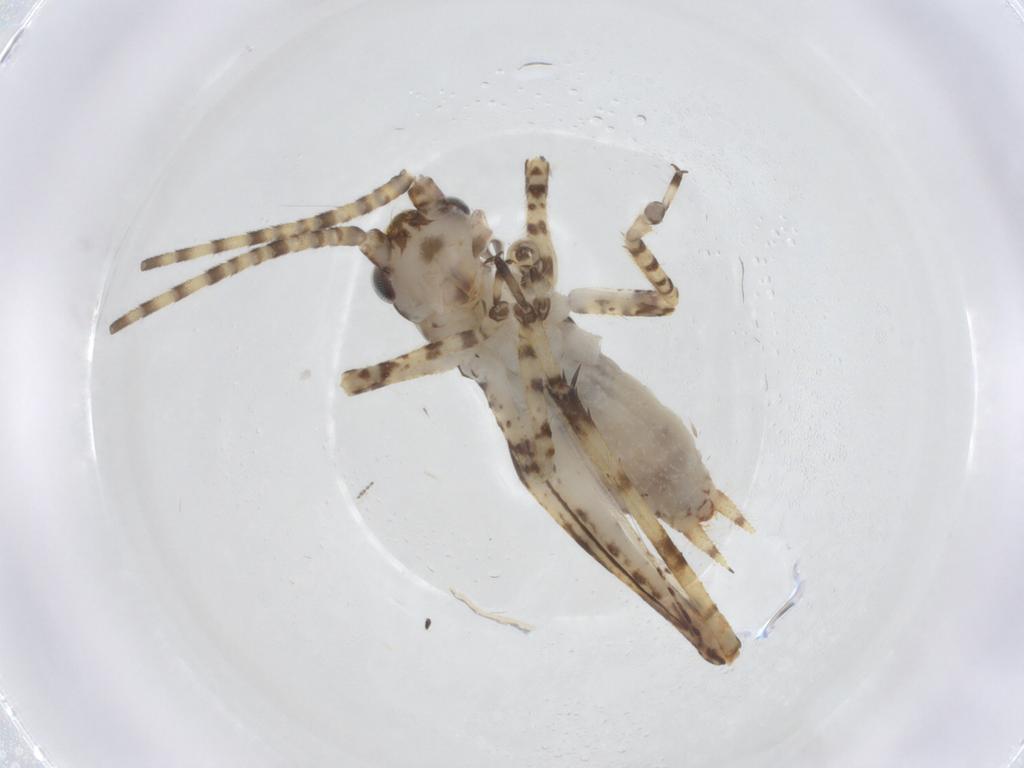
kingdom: Animalia
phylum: Arthropoda
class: Insecta
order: Orthoptera
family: Gryllidae
